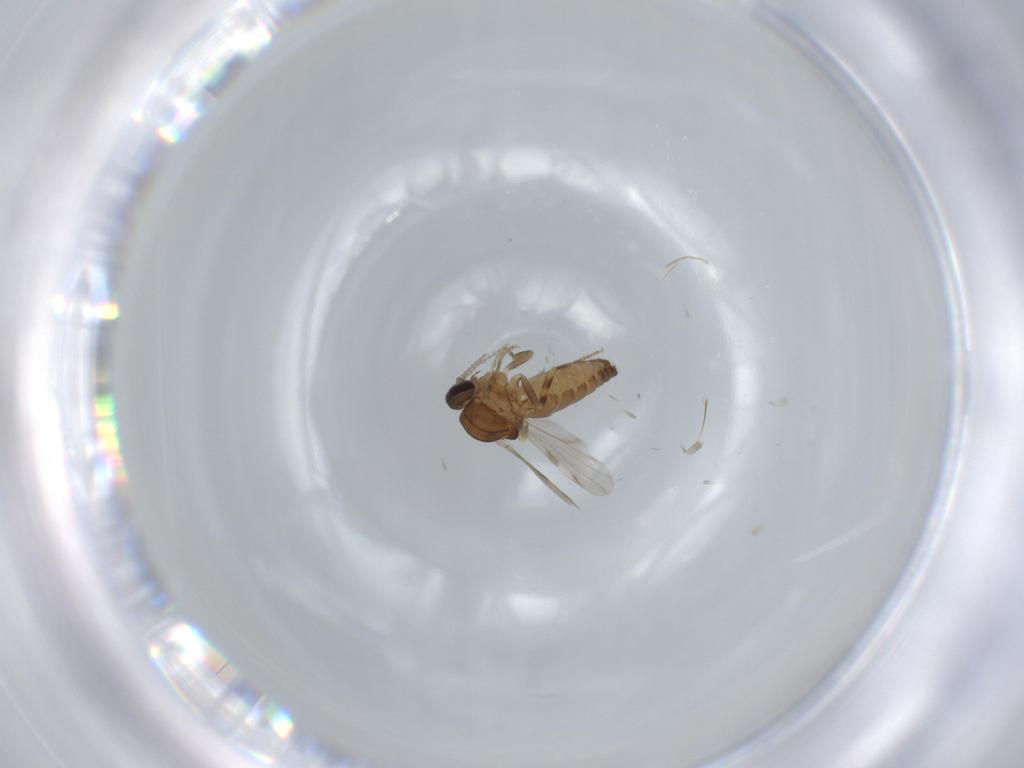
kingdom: Animalia
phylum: Arthropoda
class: Insecta
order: Diptera
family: Ceratopogonidae
